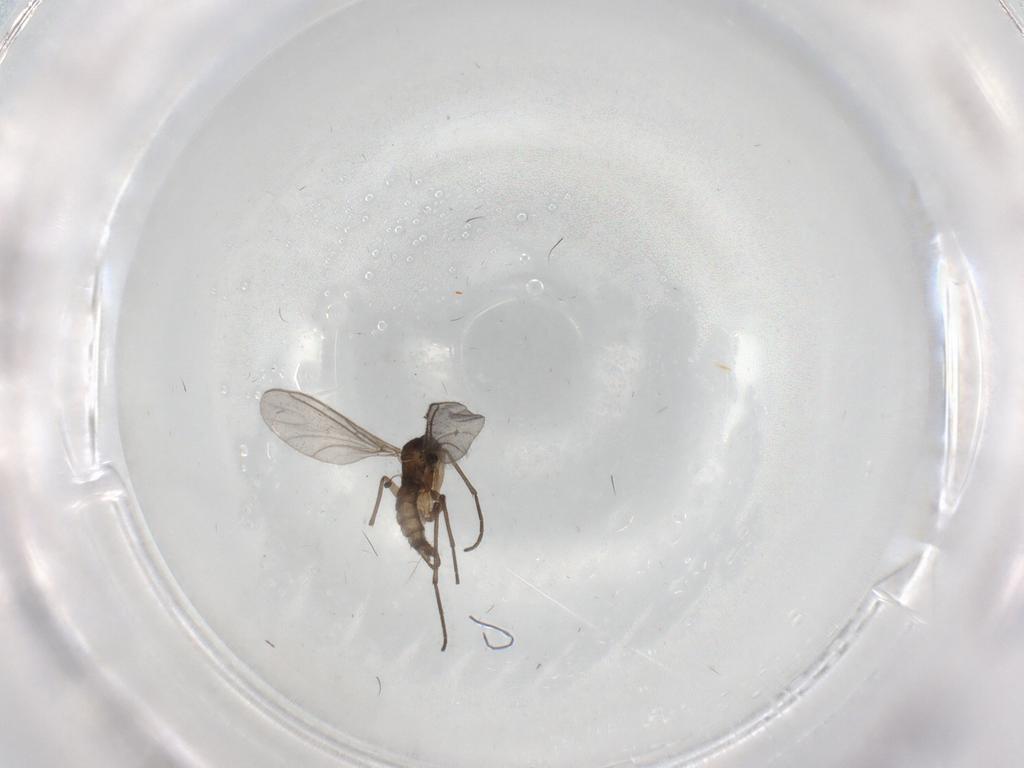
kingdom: Animalia
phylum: Arthropoda
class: Insecta
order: Diptera
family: Sciaridae
